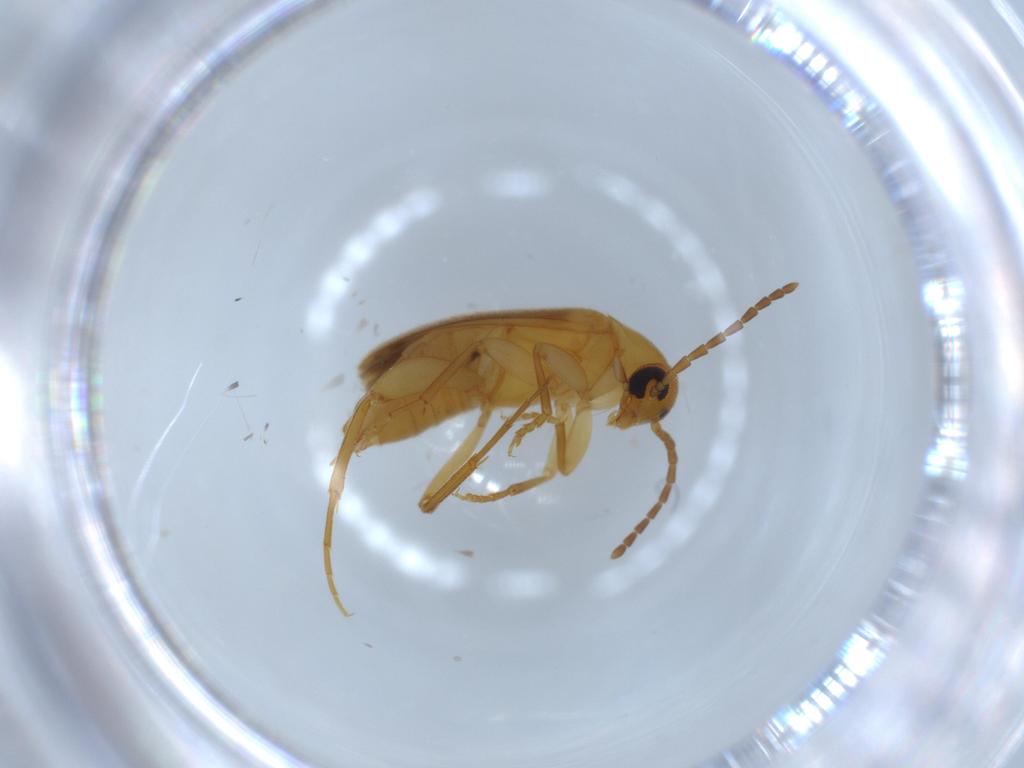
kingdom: Animalia
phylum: Arthropoda
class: Insecta
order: Coleoptera
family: Scraptiidae
